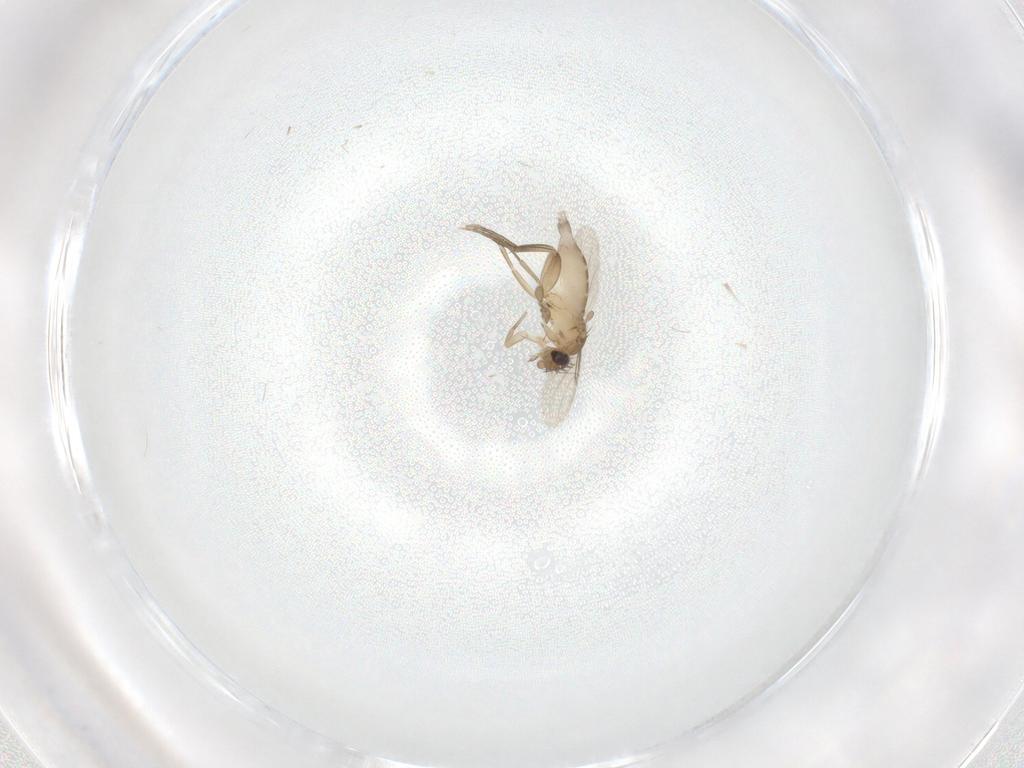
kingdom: Animalia
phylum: Arthropoda
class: Insecta
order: Diptera
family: Phoridae
